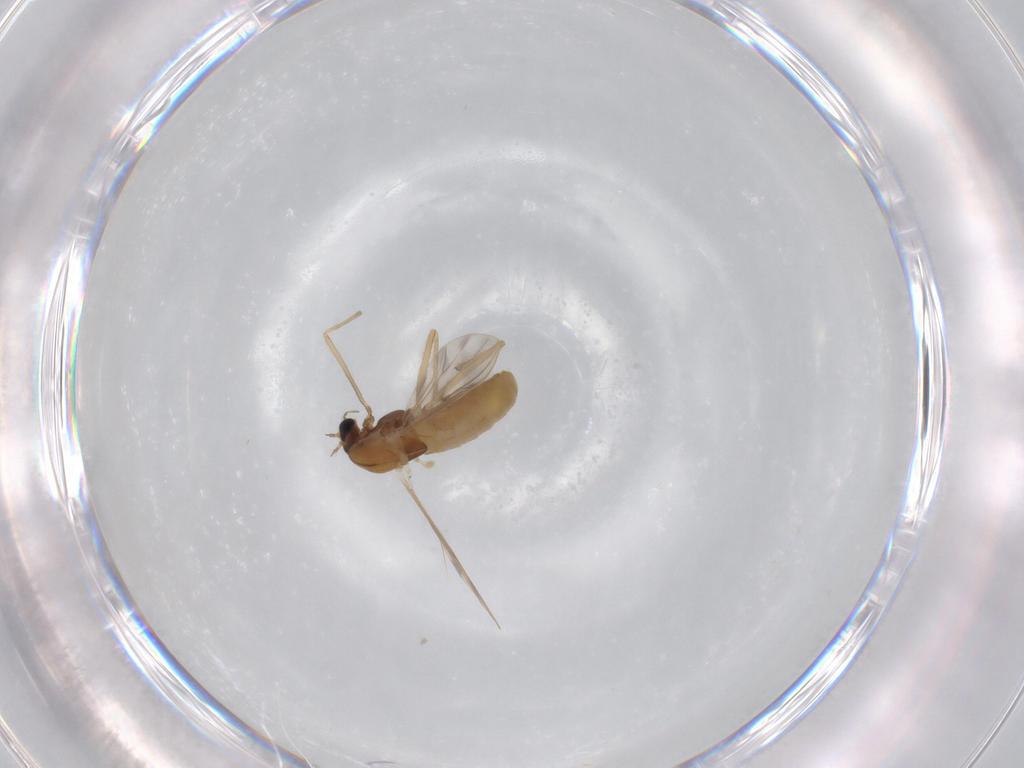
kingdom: Animalia
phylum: Arthropoda
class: Insecta
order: Diptera
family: Chironomidae
